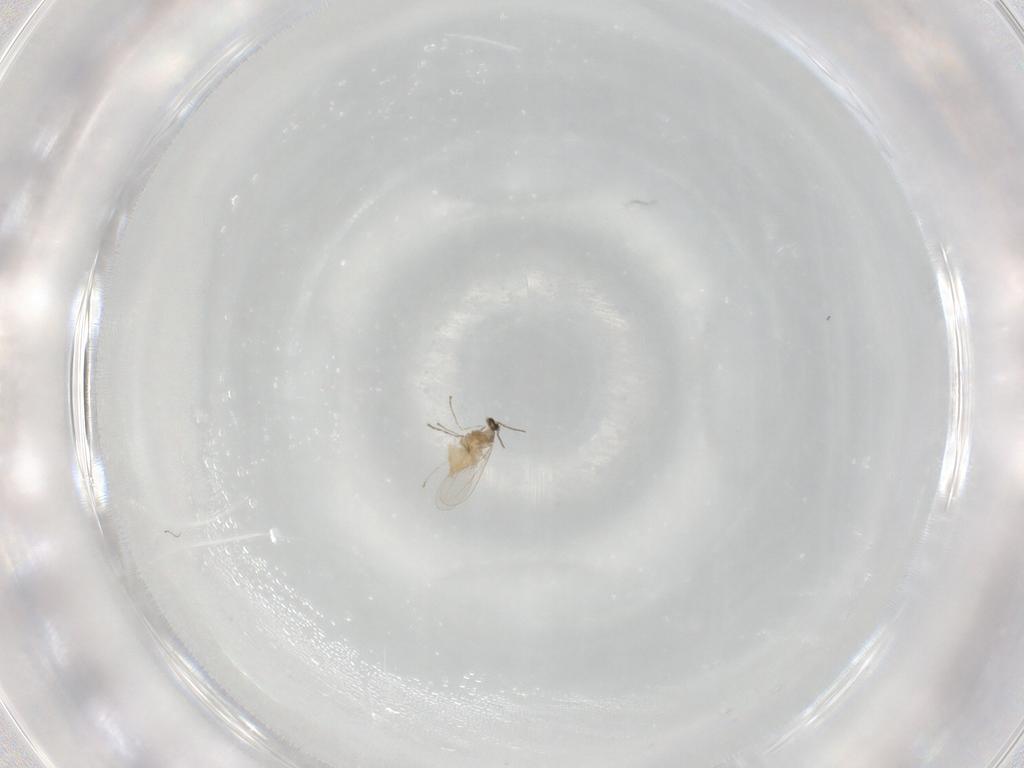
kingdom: Animalia
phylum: Arthropoda
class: Insecta
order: Diptera
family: Cecidomyiidae
